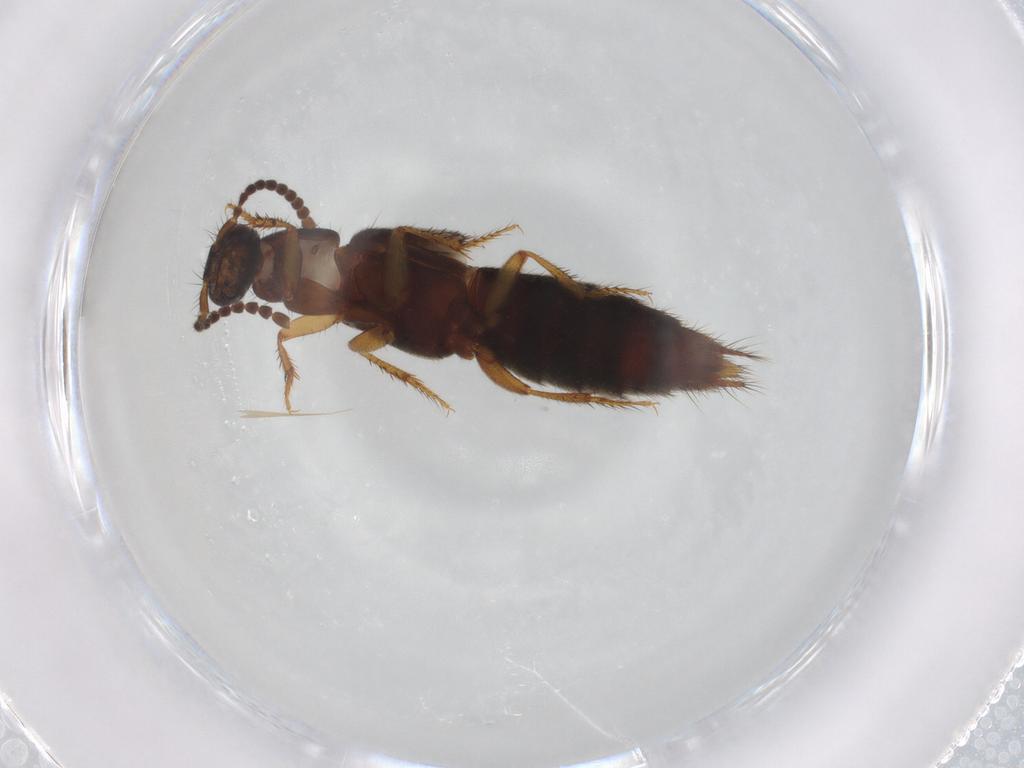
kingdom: Animalia
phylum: Arthropoda
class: Insecta
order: Coleoptera
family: Staphylinidae
